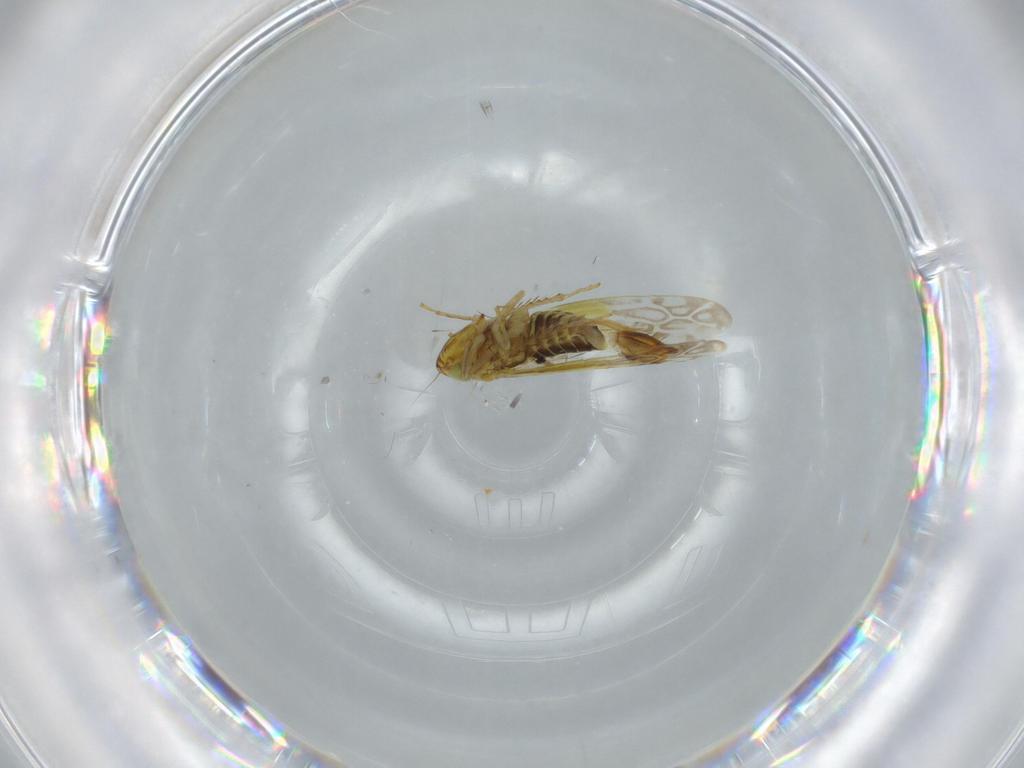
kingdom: Animalia
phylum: Arthropoda
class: Insecta
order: Hemiptera
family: Cicadellidae
